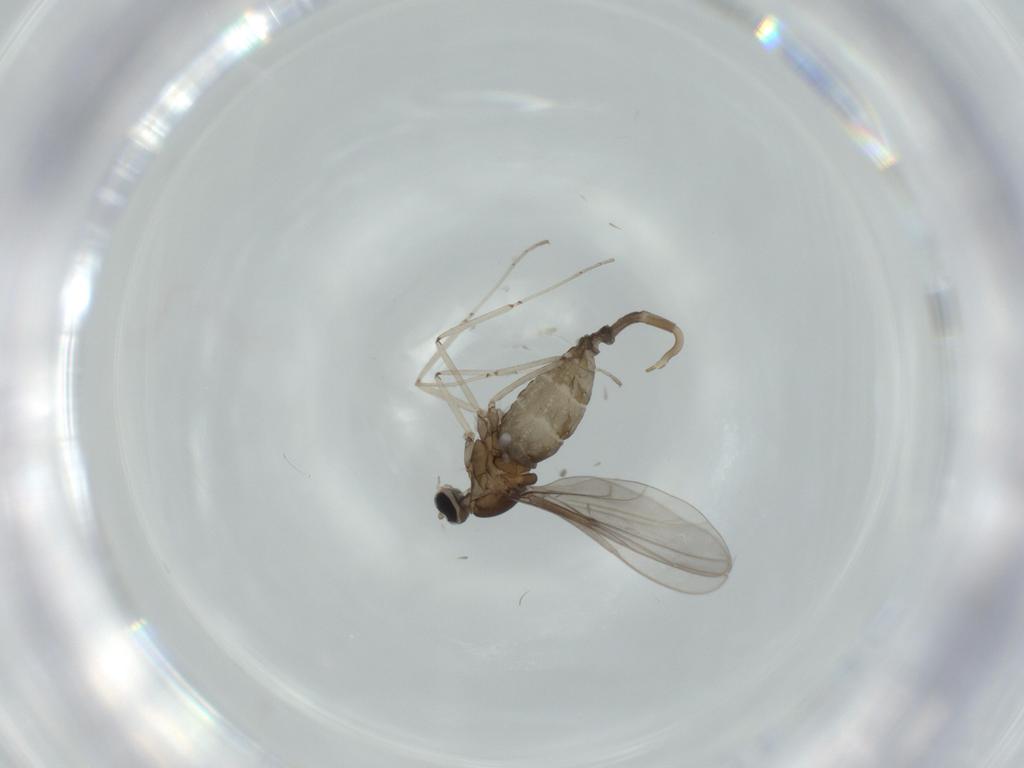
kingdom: Animalia
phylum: Arthropoda
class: Insecta
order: Diptera
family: Cecidomyiidae
